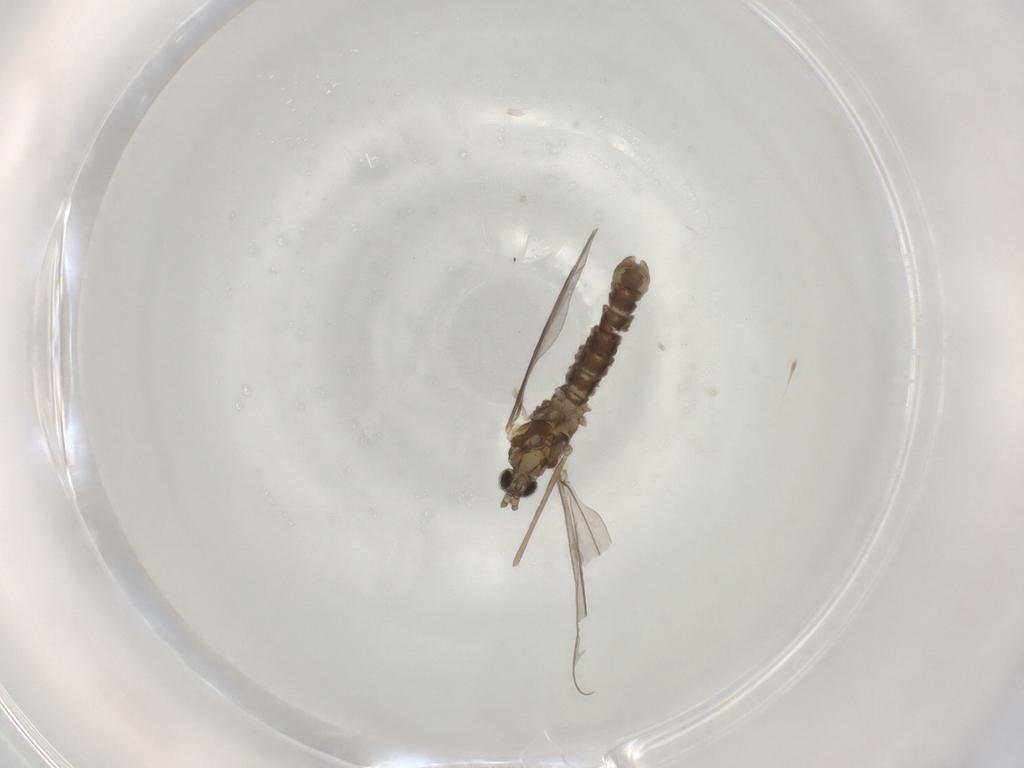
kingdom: Animalia
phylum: Arthropoda
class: Insecta
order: Diptera
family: Cecidomyiidae
